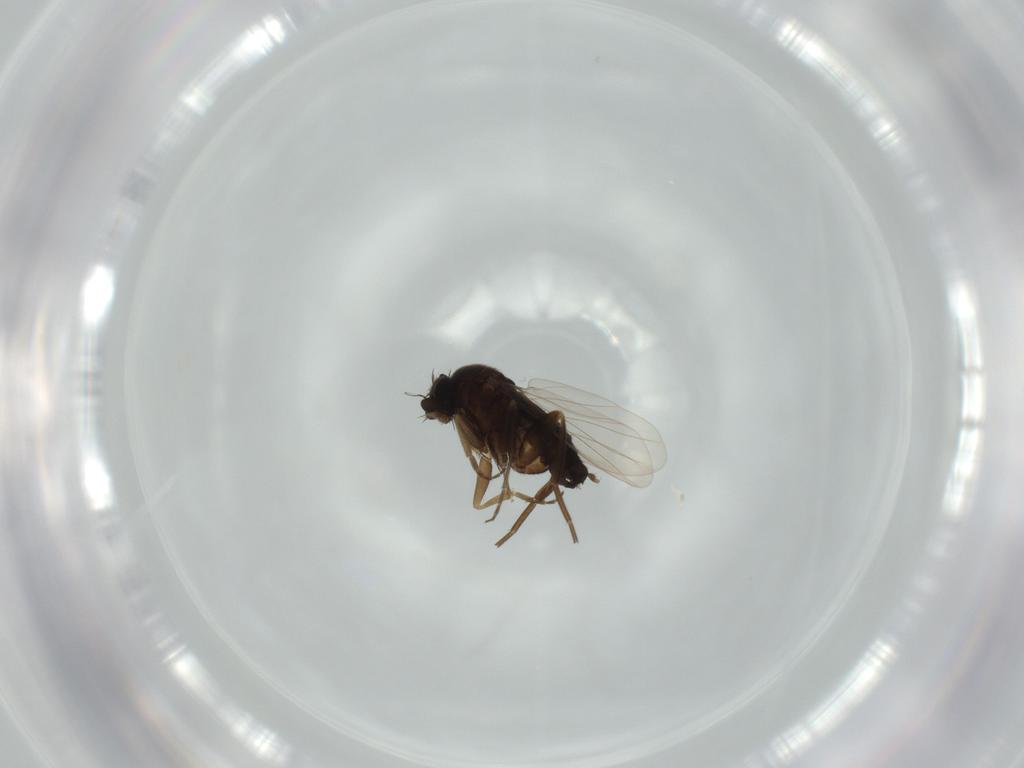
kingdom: Animalia
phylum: Arthropoda
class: Insecta
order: Diptera
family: Phoridae
